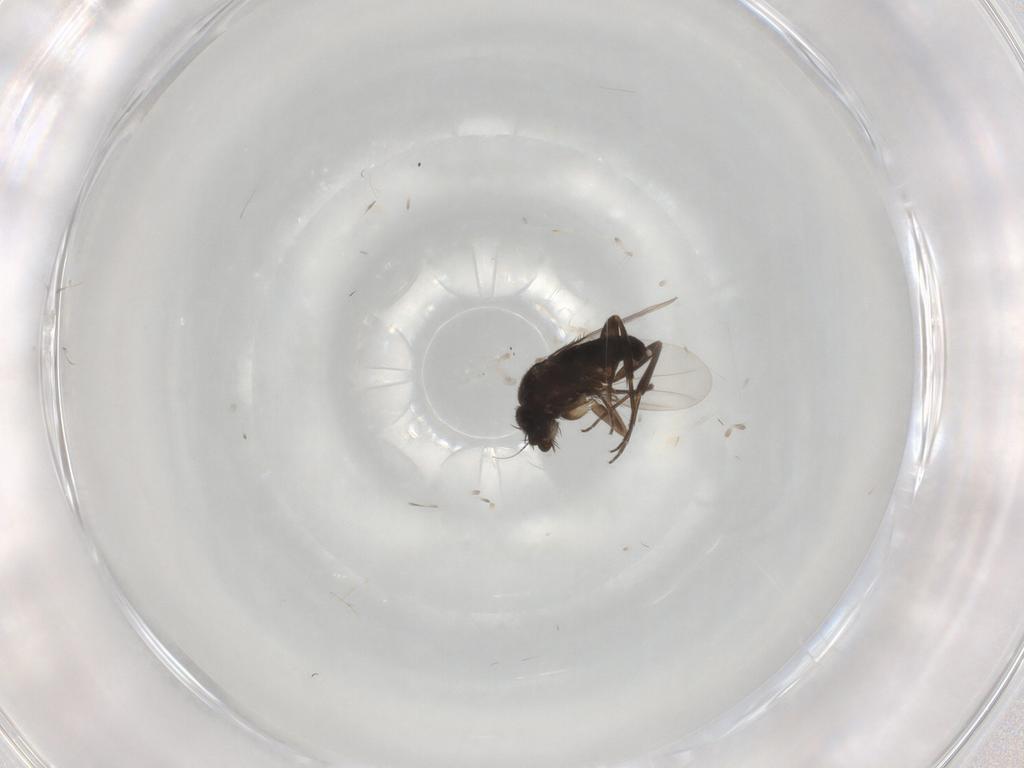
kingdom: Animalia
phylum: Arthropoda
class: Insecta
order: Diptera
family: Phoridae
